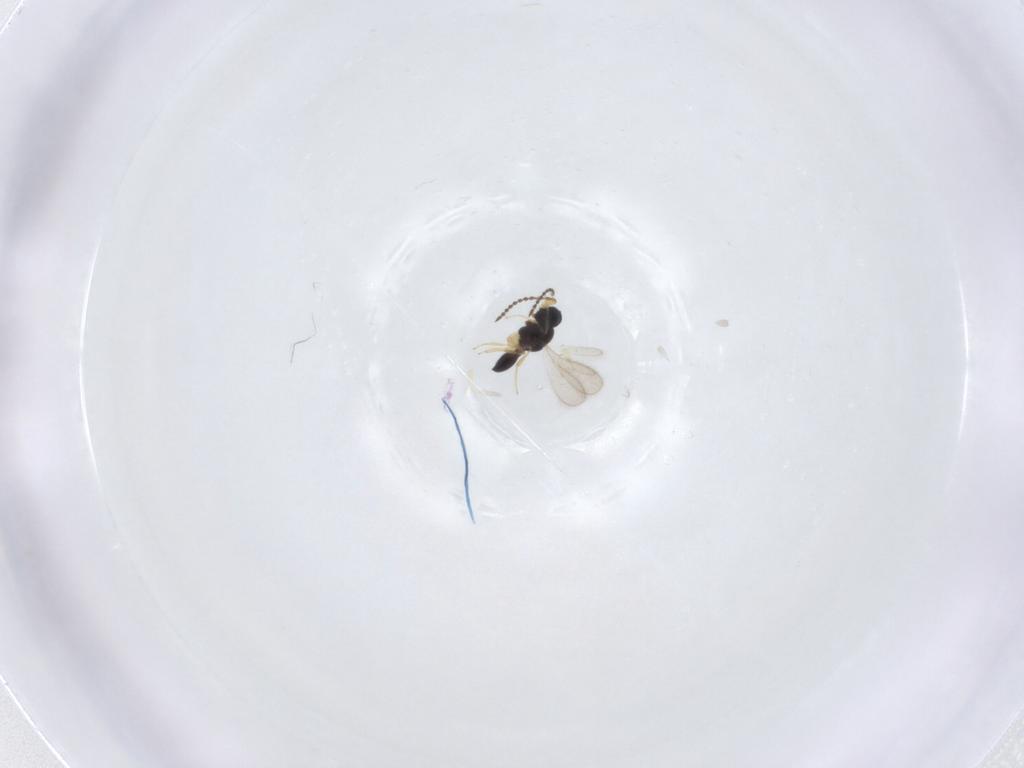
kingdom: Animalia
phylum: Arthropoda
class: Insecta
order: Hymenoptera
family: Scelionidae
